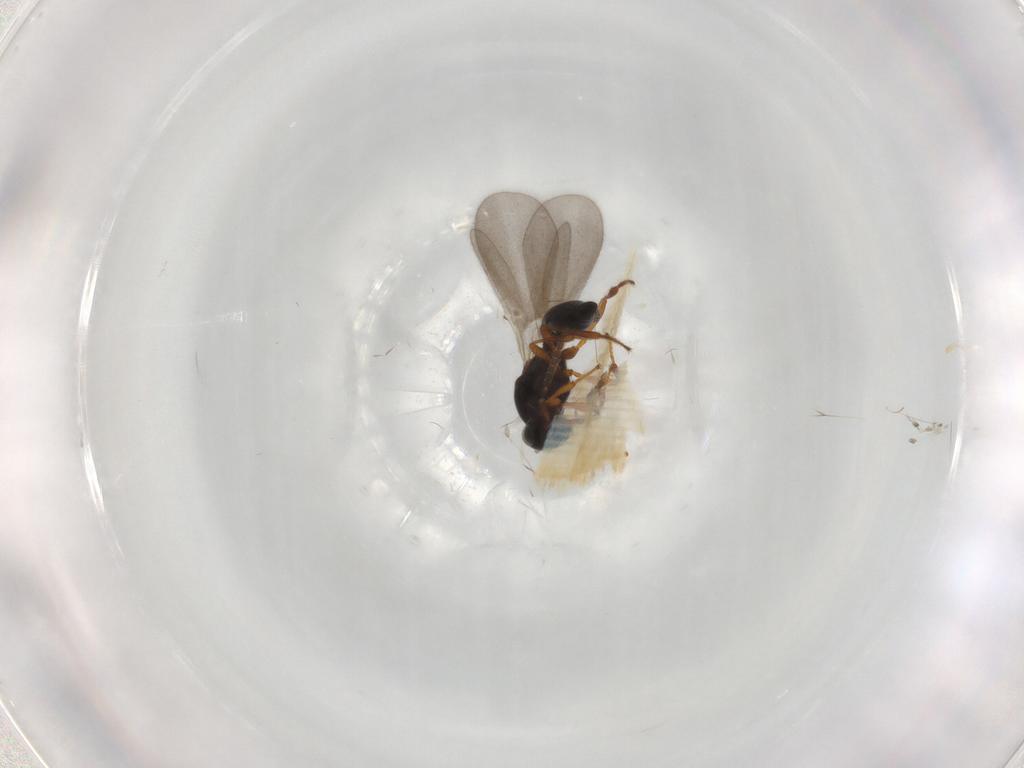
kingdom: Animalia
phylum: Arthropoda
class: Insecta
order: Hymenoptera
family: Platygastridae
